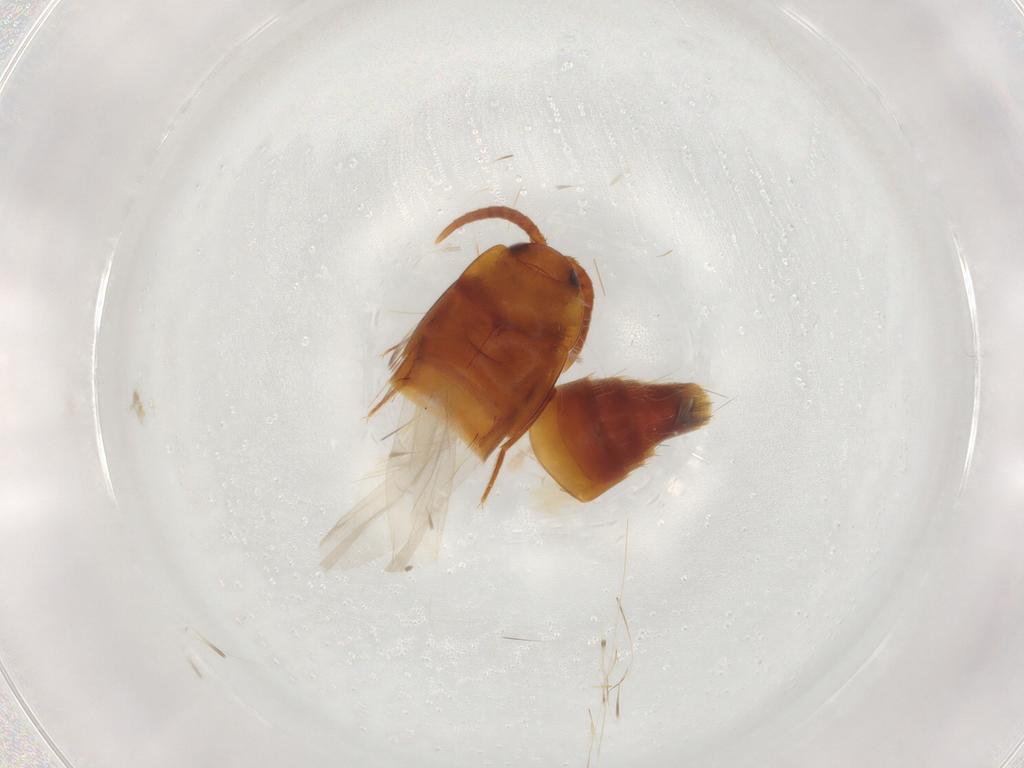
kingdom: Animalia
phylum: Arthropoda
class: Insecta
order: Coleoptera
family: Staphylinidae
